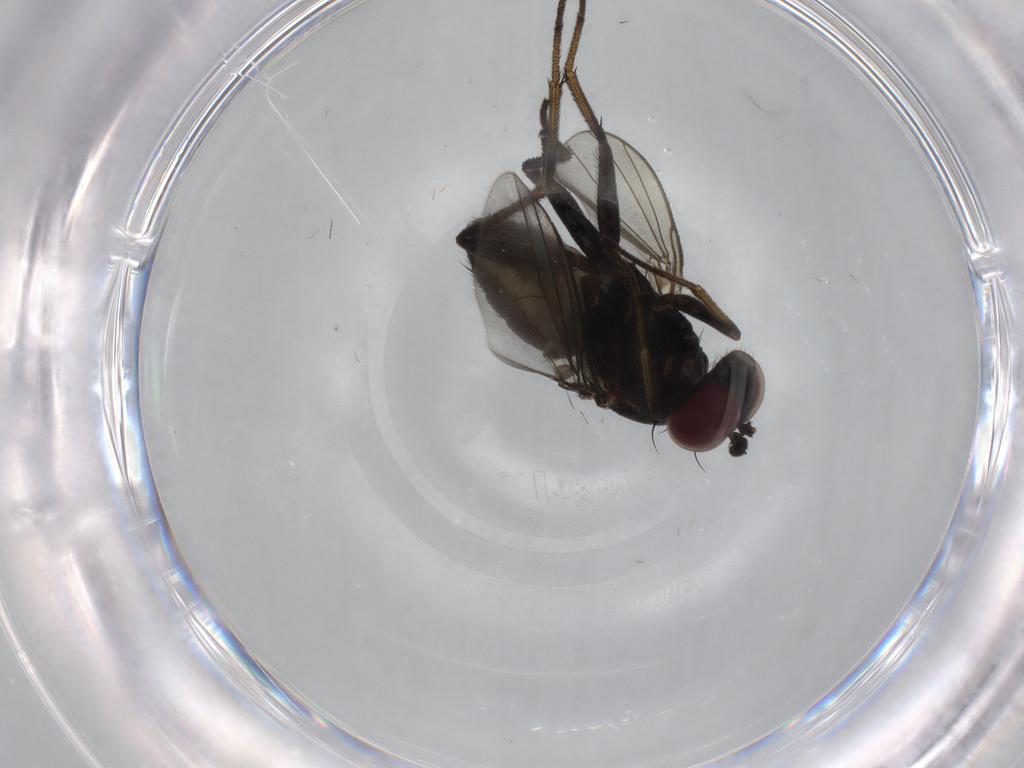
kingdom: Animalia
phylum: Arthropoda
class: Insecta
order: Diptera
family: Dolichopodidae
